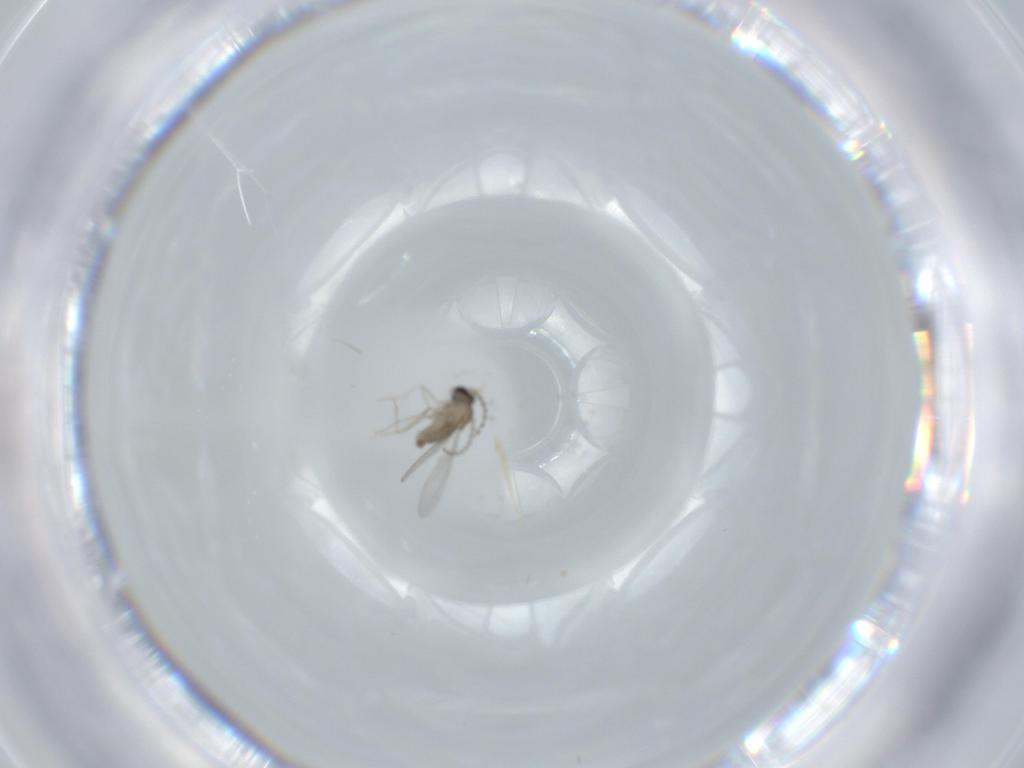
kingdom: Animalia
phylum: Arthropoda
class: Insecta
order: Diptera
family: Cecidomyiidae
